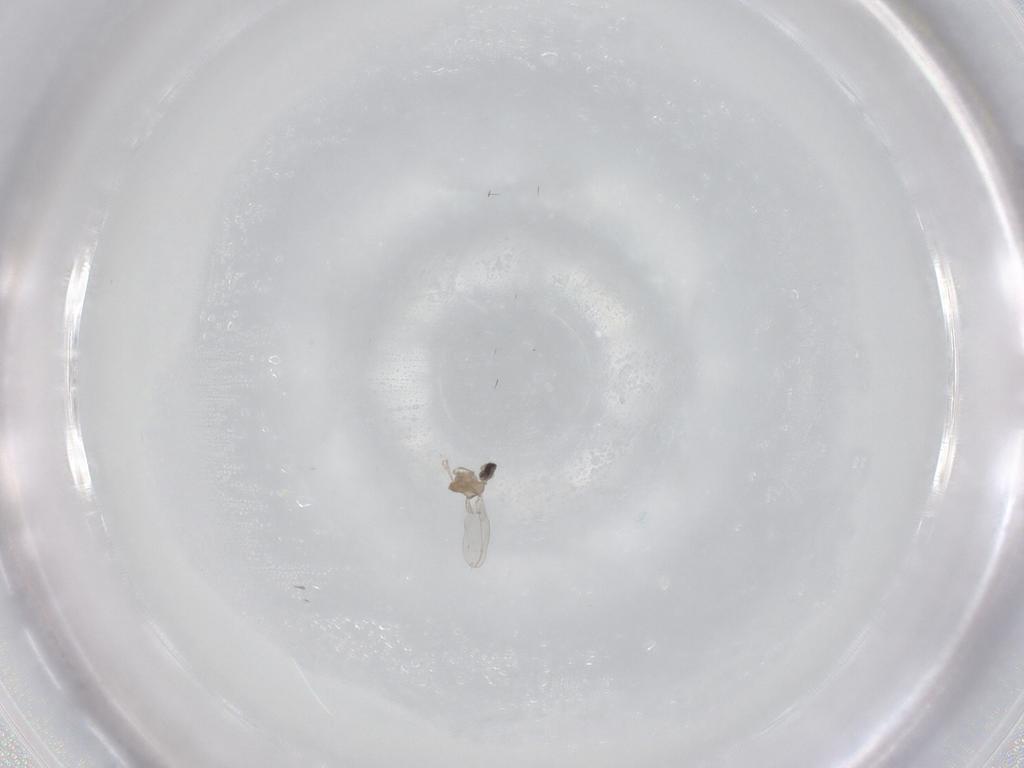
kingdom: Animalia
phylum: Arthropoda
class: Insecta
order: Diptera
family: Cecidomyiidae
